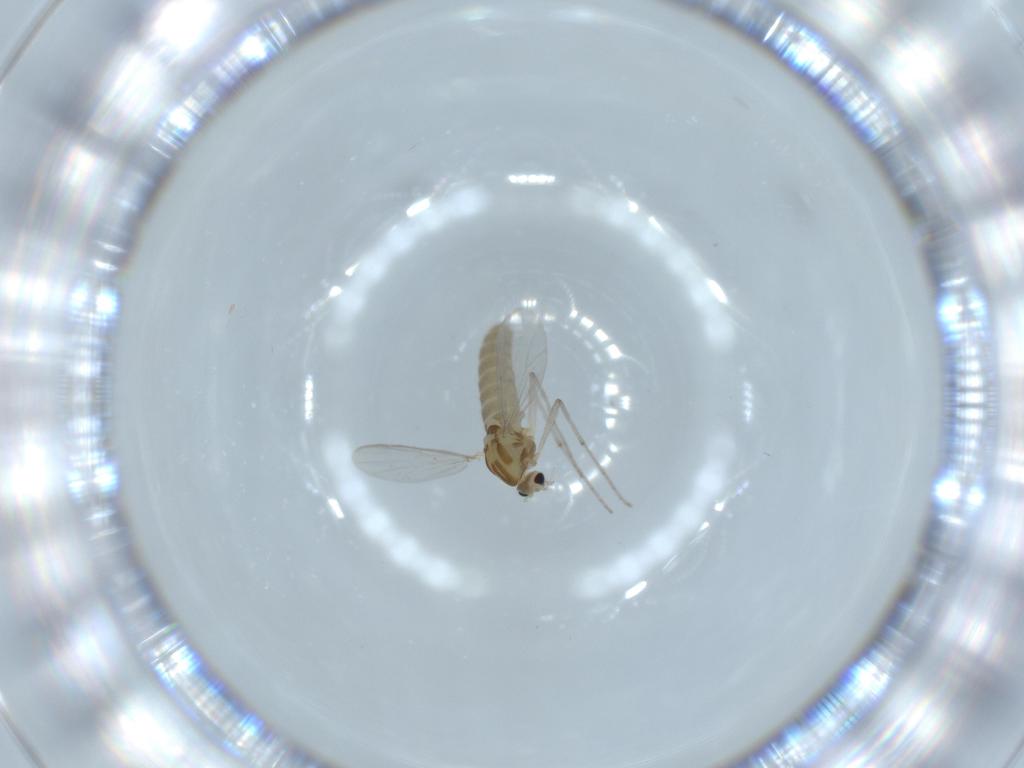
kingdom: Animalia
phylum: Arthropoda
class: Insecta
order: Diptera
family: Chironomidae
